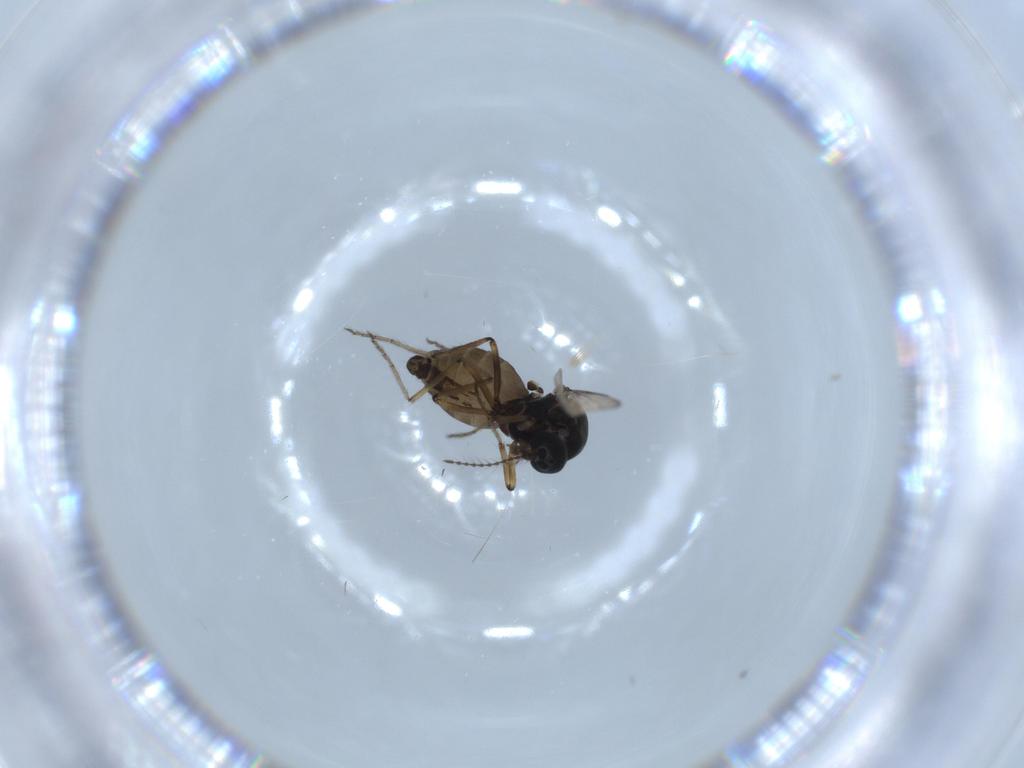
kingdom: Animalia
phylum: Arthropoda
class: Insecta
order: Diptera
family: Ceratopogonidae
